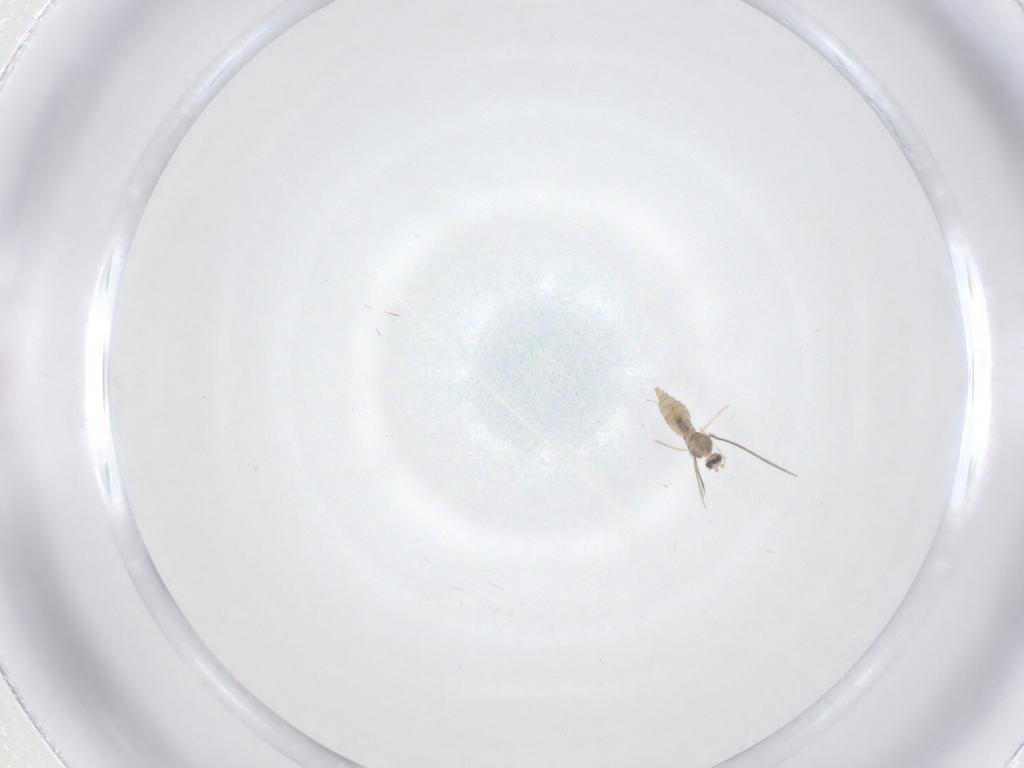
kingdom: Animalia
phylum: Arthropoda
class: Insecta
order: Diptera
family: Cecidomyiidae
